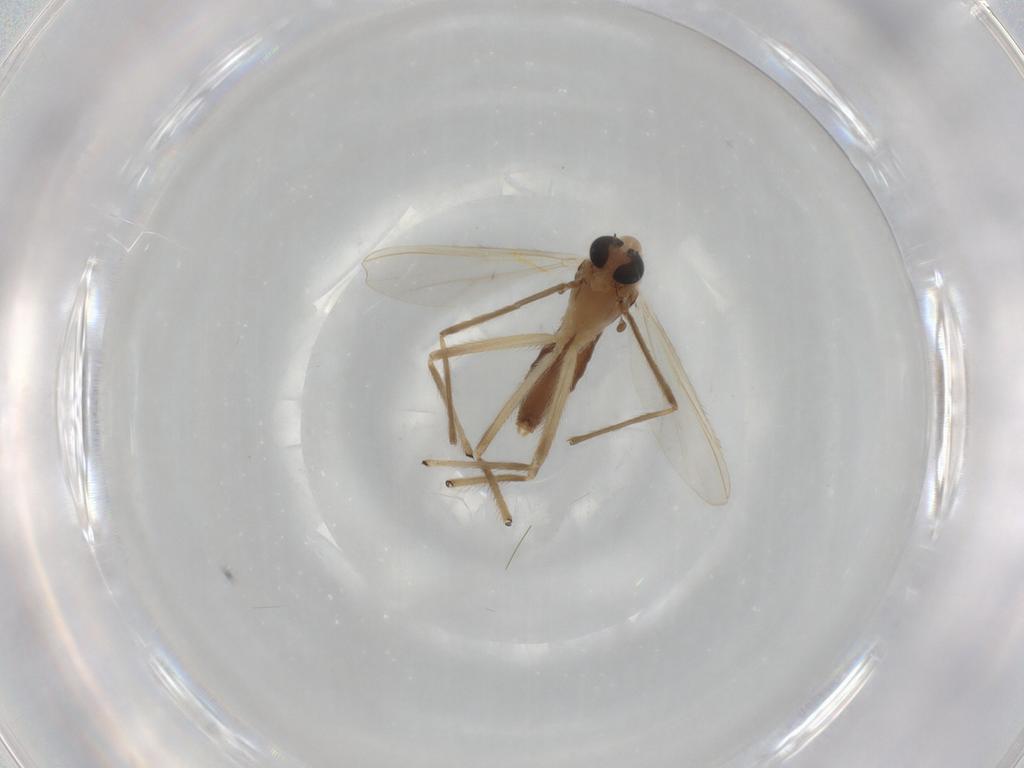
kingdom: Animalia
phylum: Arthropoda
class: Insecta
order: Diptera
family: Chironomidae
